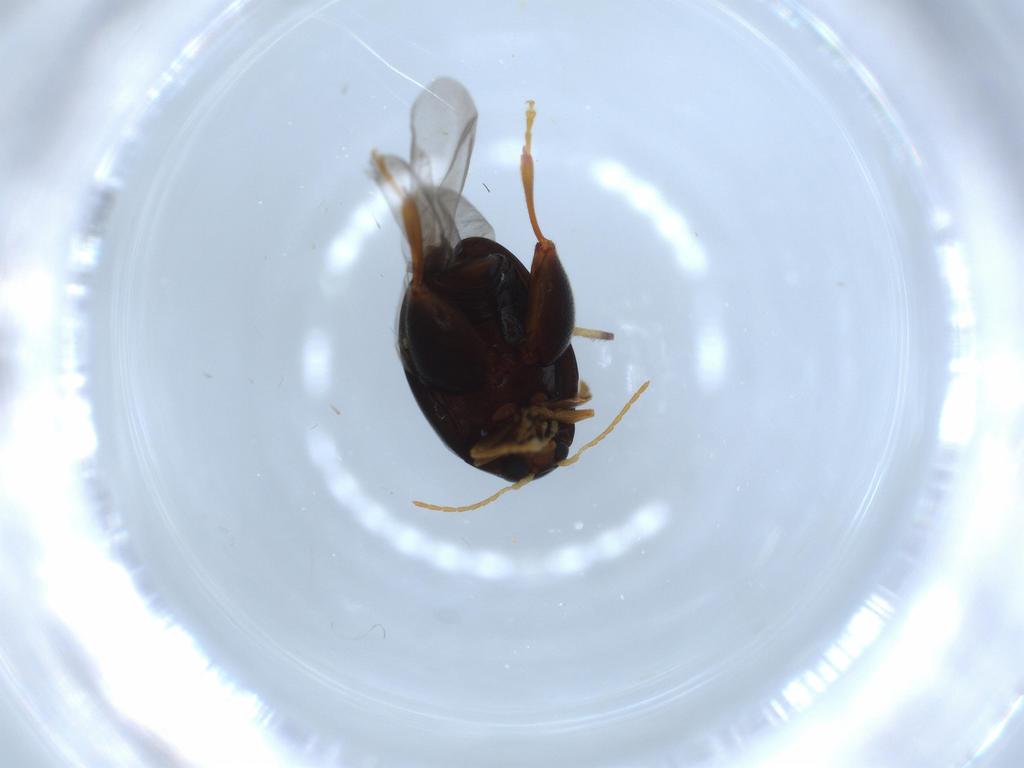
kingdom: Animalia
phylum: Arthropoda
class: Insecta
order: Coleoptera
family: Chrysomelidae
